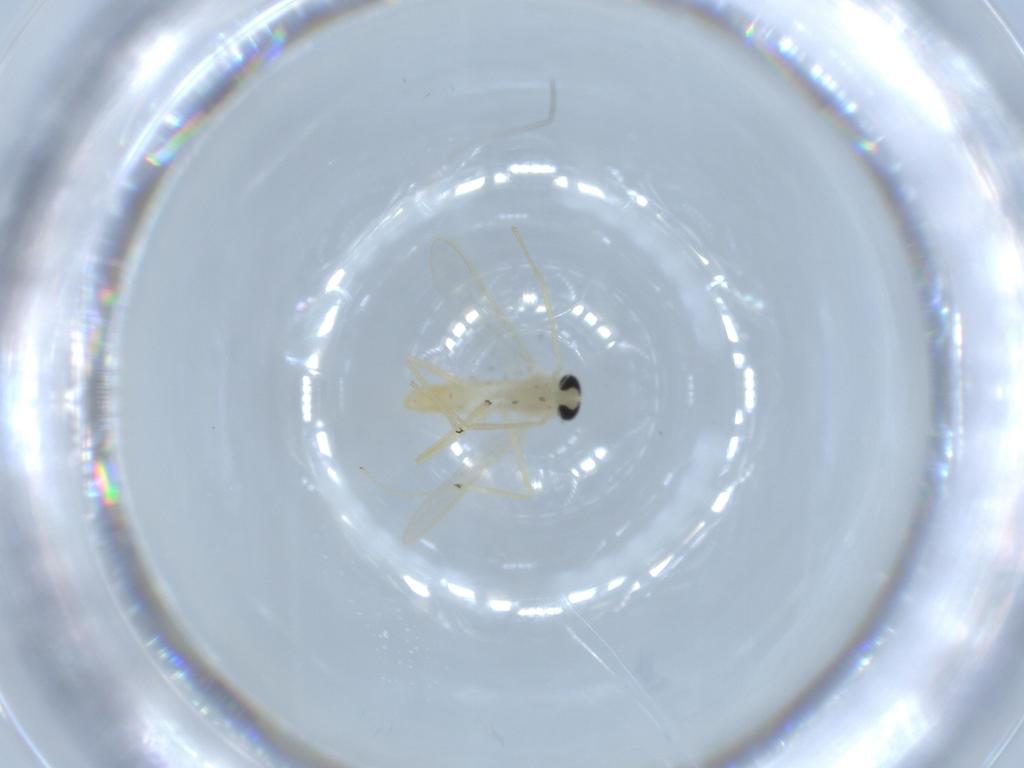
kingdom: Animalia
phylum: Arthropoda
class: Insecta
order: Diptera
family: Chironomidae
